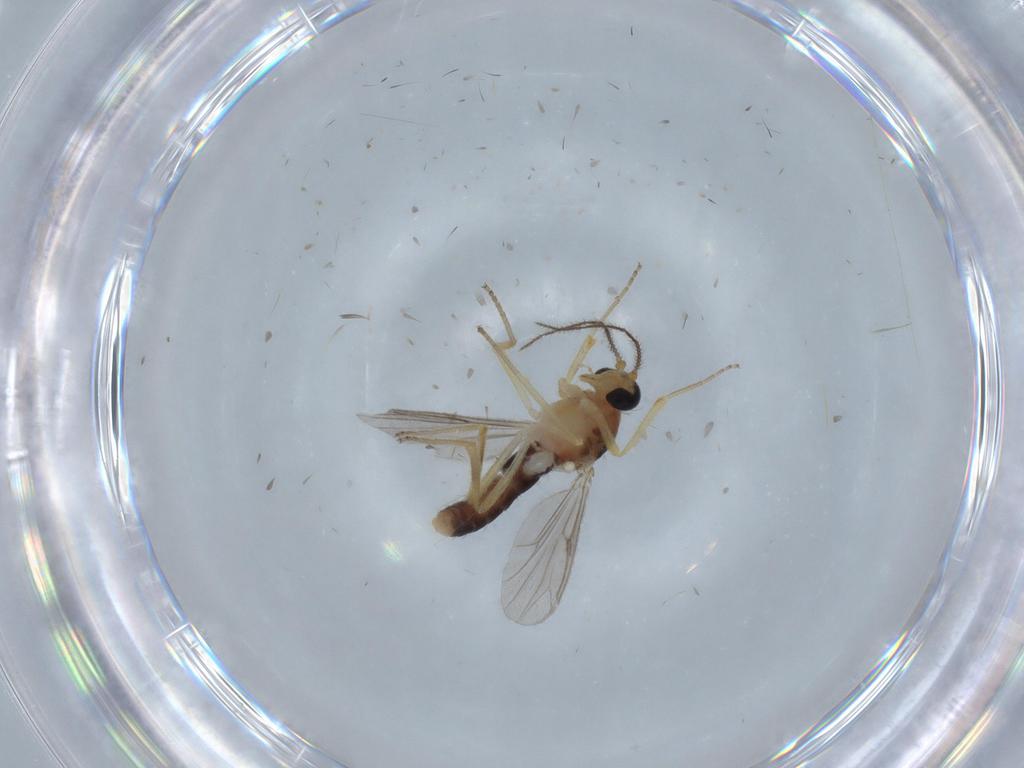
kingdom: Animalia
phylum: Arthropoda
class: Insecta
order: Diptera
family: Ceratopogonidae
